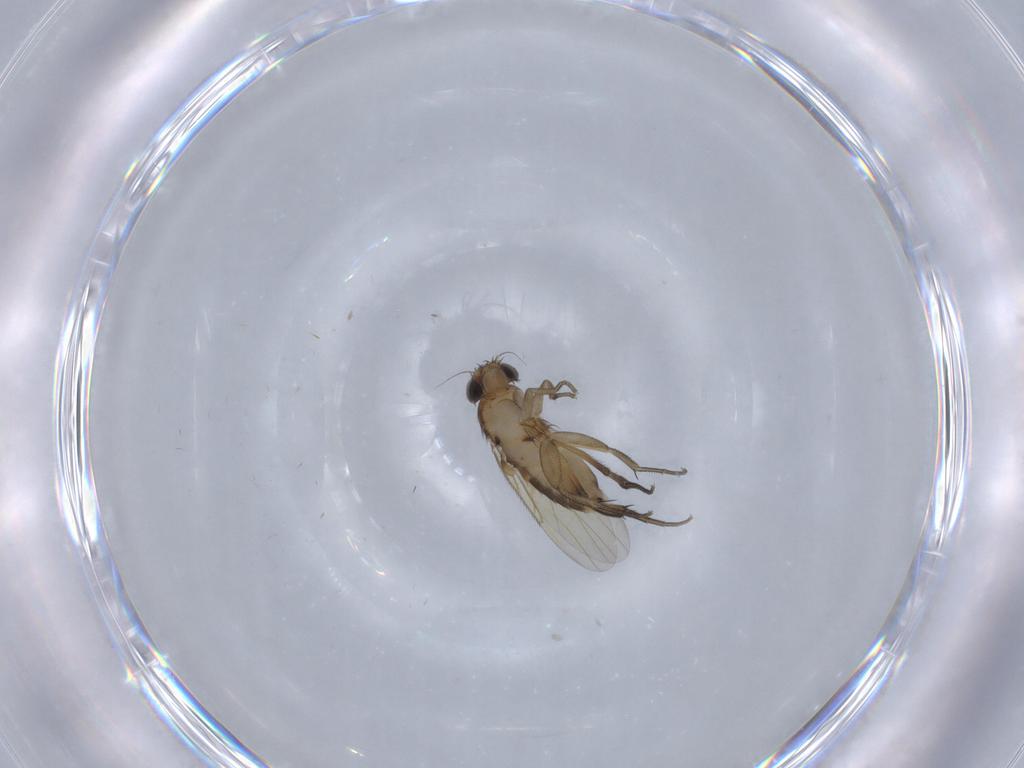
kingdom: Animalia
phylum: Arthropoda
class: Insecta
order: Diptera
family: Phoridae
